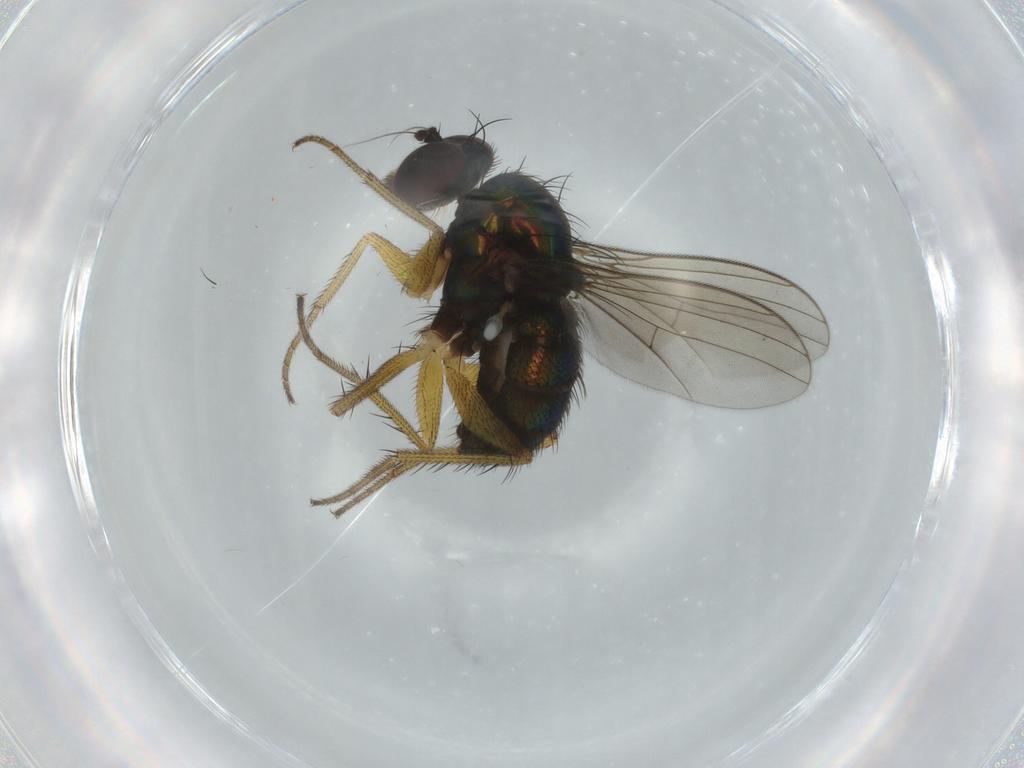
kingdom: Animalia
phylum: Arthropoda
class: Insecta
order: Diptera
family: Dolichopodidae
